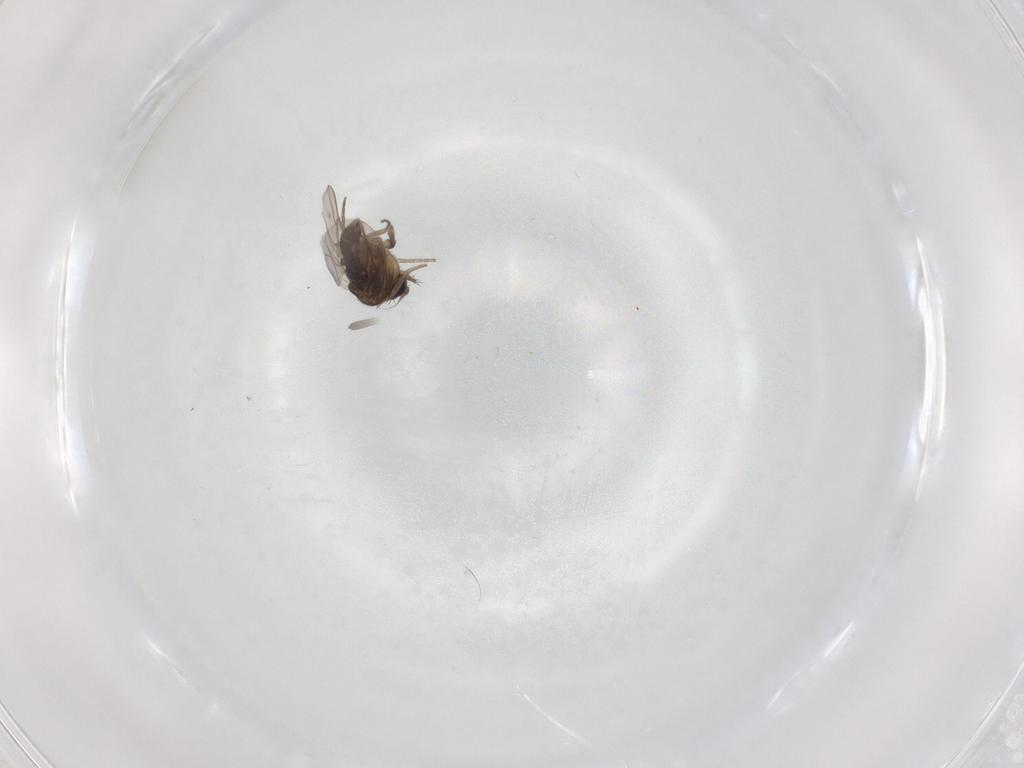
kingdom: Animalia
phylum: Arthropoda
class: Insecta
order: Diptera
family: Phoridae
